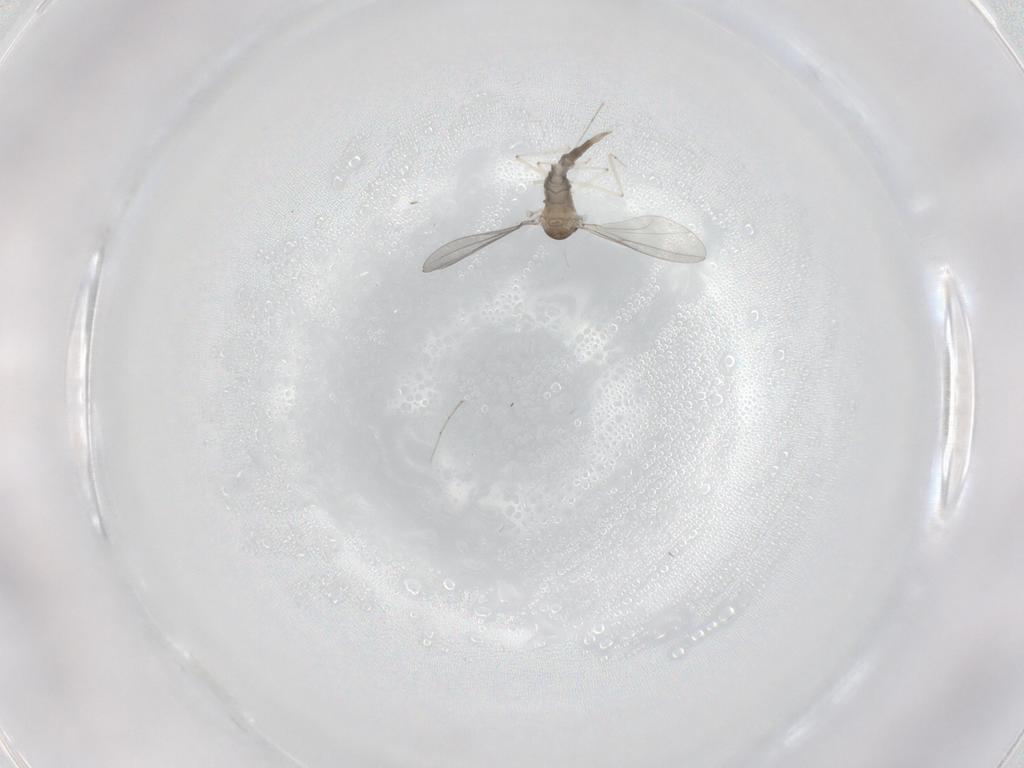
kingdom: Animalia
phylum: Arthropoda
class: Insecta
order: Diptera
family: Cecidomyiidae
